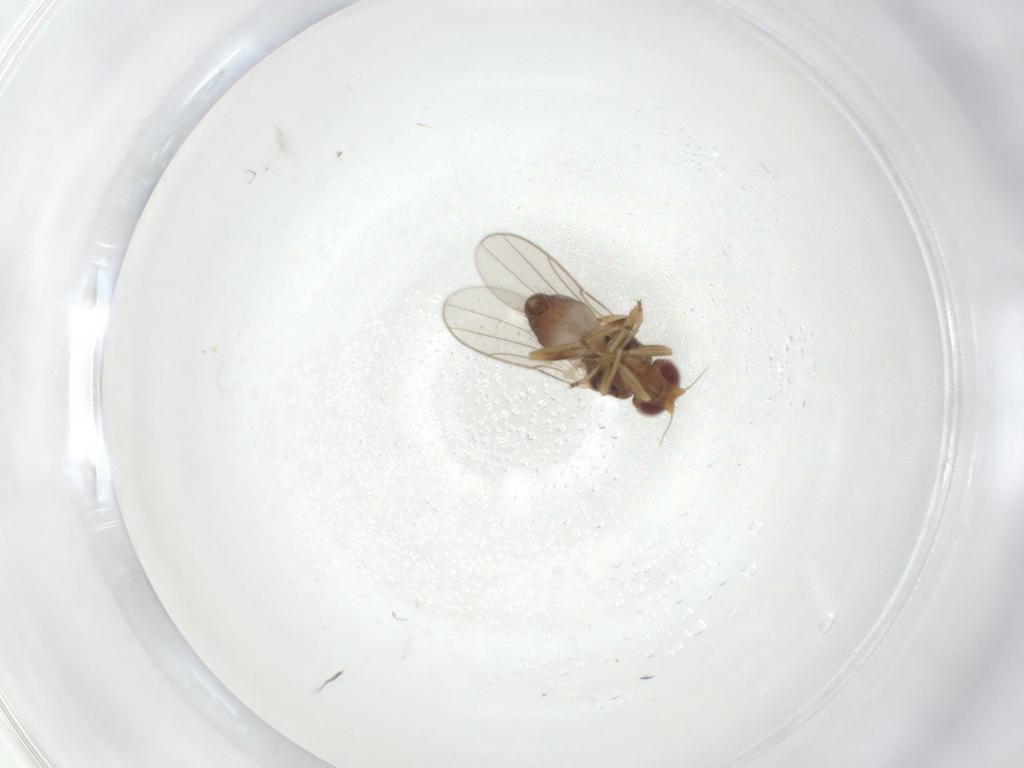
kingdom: Animalia
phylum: Arthropoda
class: Insecta
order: Diptera
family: Chloropidae
